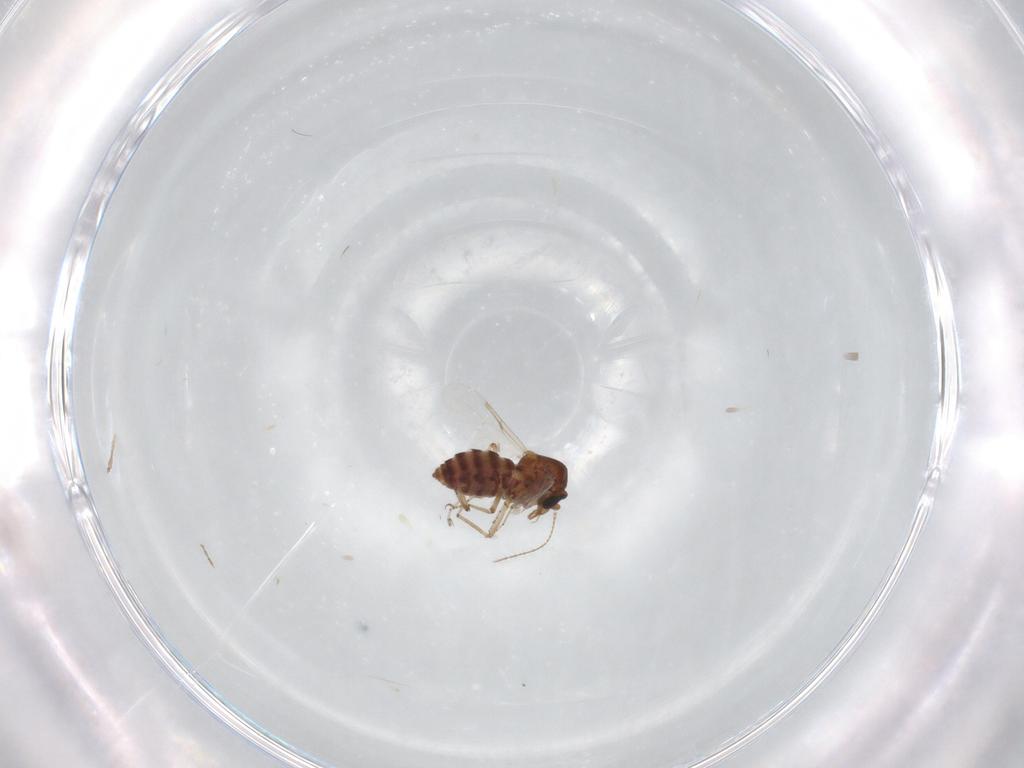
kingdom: Animalia
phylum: Arthropoda
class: Insecta
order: Diptera
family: Ceratopogonidae
